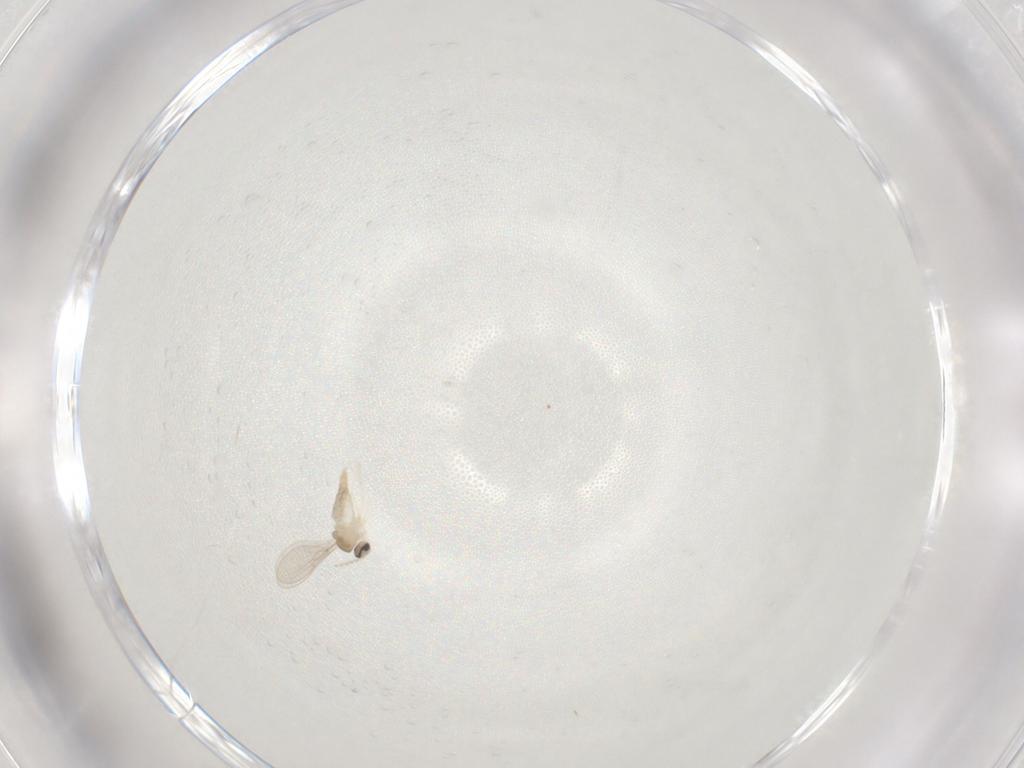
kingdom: Animalia
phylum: Arthropoda
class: Insecta
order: Diptera
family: Cecidomyiidae
